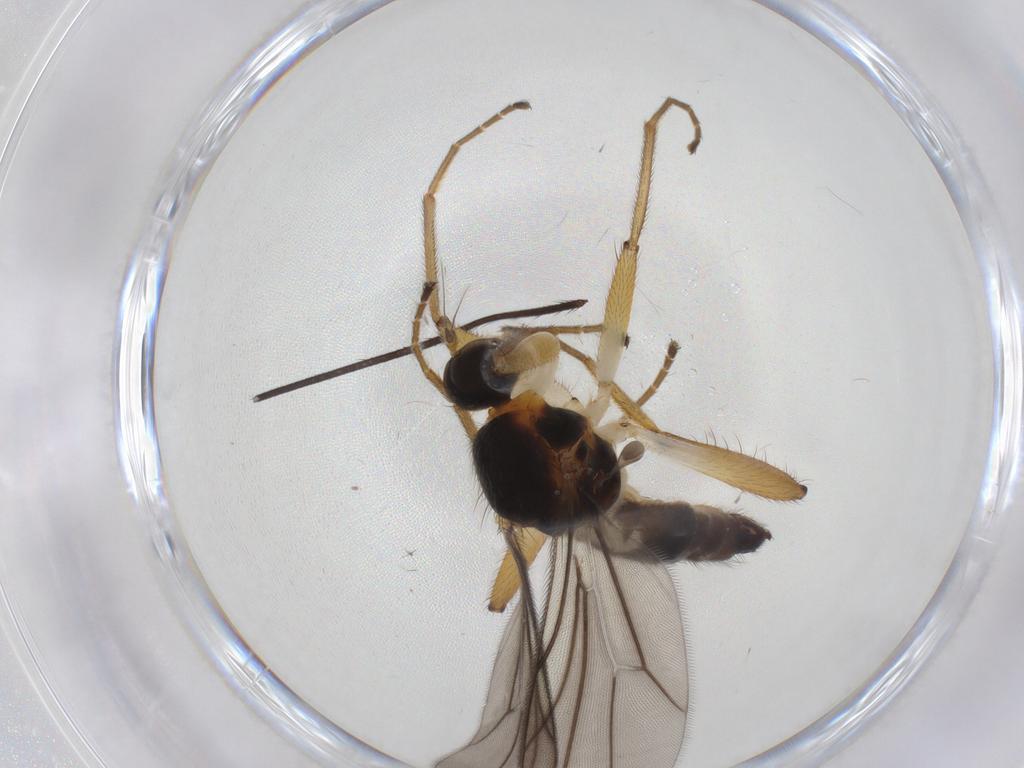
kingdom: Animalia
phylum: Arthropoda
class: Insecta
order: Diptera
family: Hybotidae
